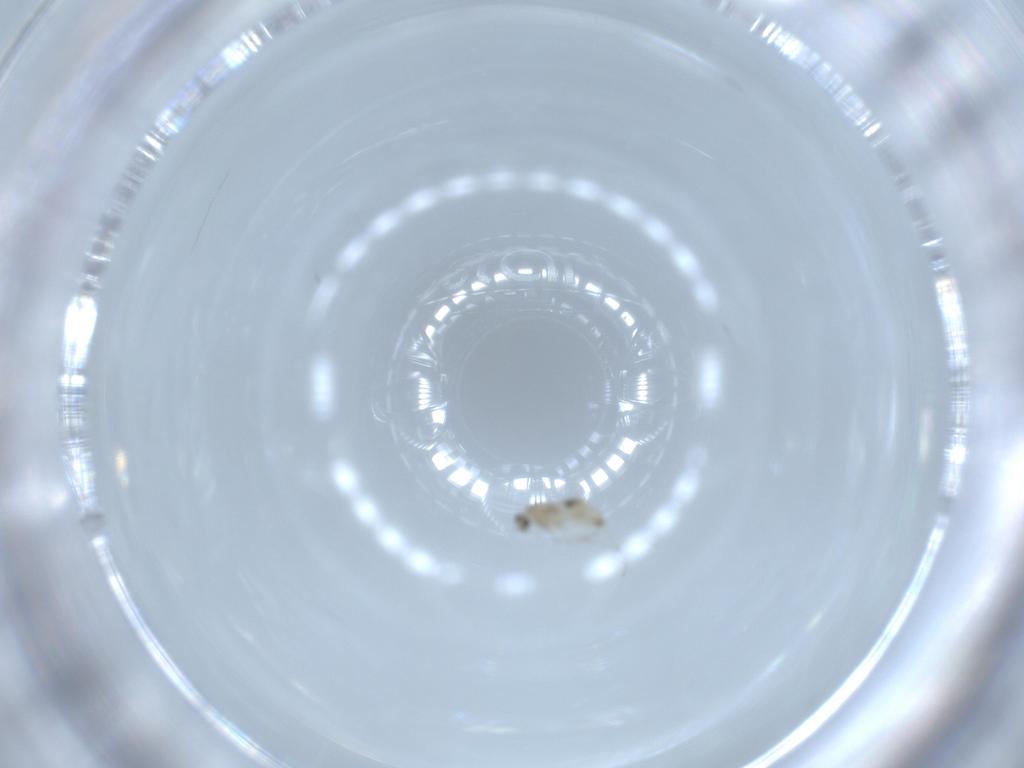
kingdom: Animalia
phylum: Arthropoda
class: Insecta
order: Diptera
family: Cecidomyiidae
